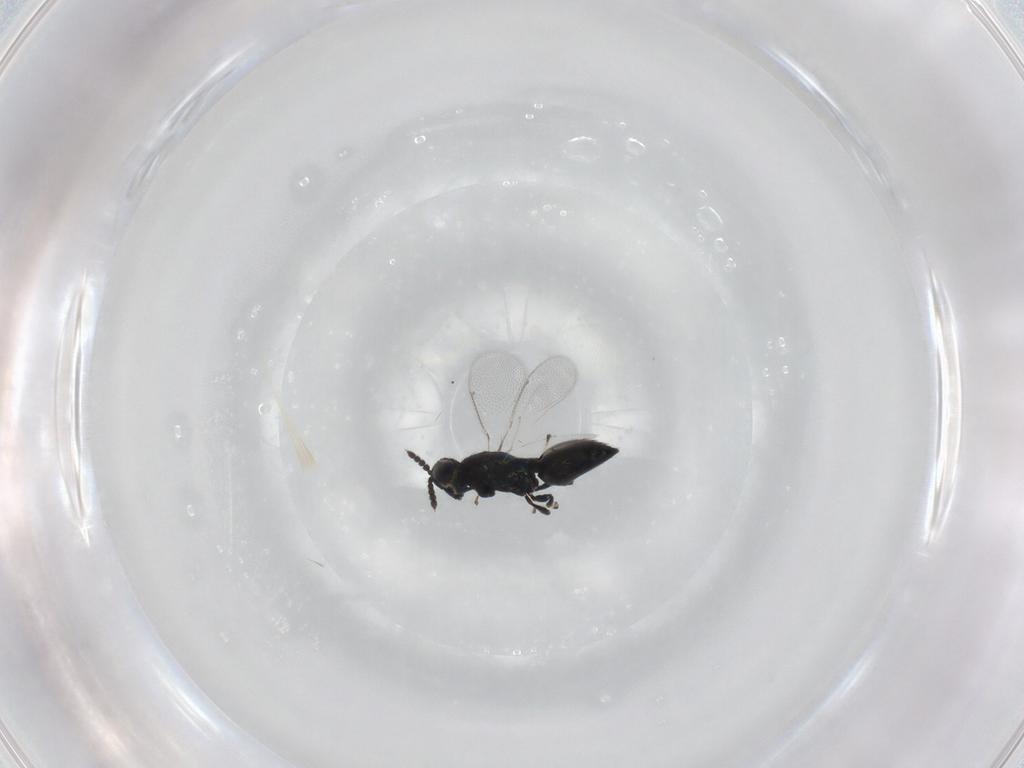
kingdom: Animalia
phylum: Arthropoda
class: Insecta
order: Hymenoptera
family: Eulophidae
